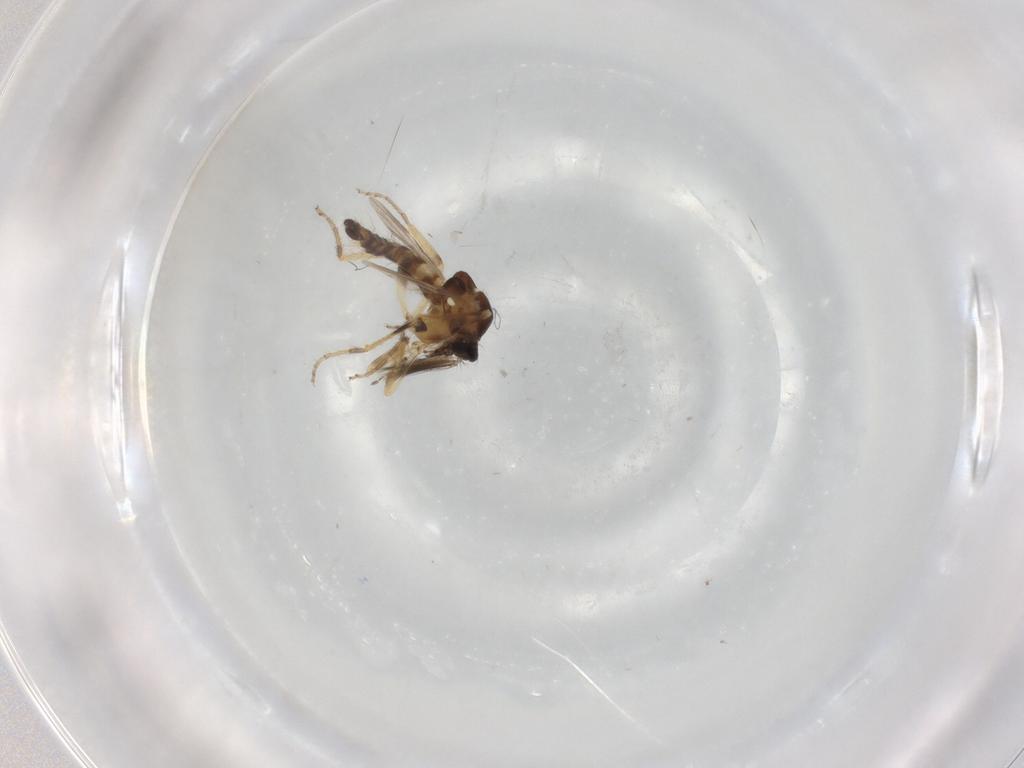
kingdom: Animalia
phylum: Arthropoda
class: Insecta
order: Diptera
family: Ceratopogonidae
